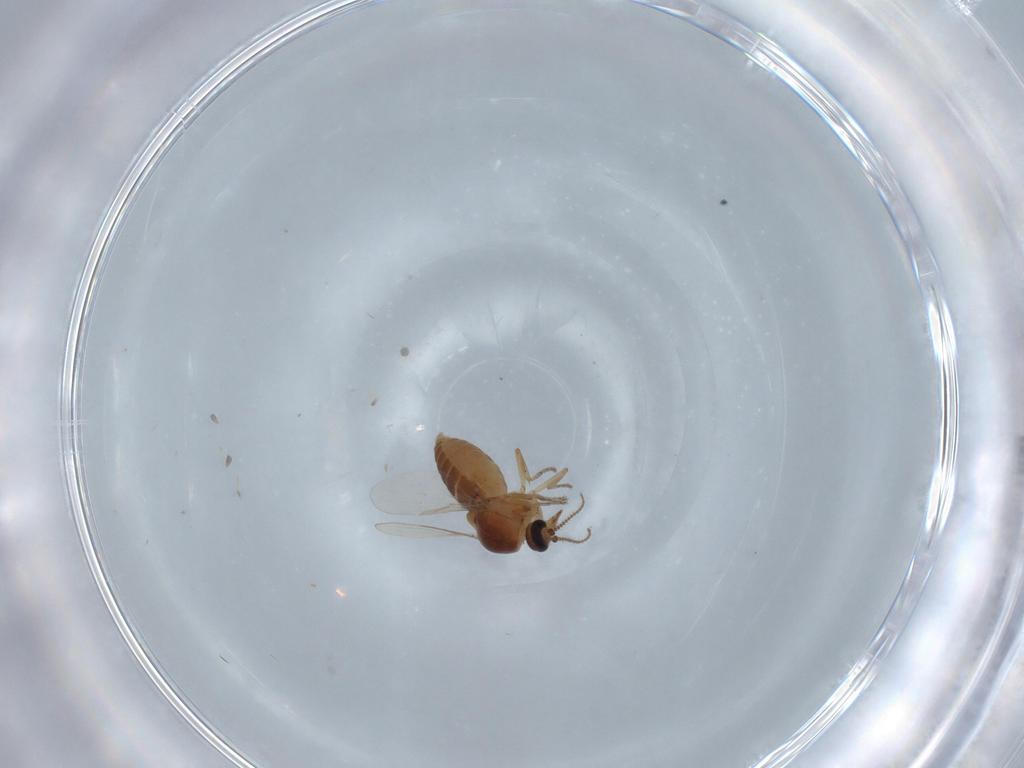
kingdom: Animalia
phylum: Arthropoda
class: Insecta
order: Diptera
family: Ceratopogonidae
